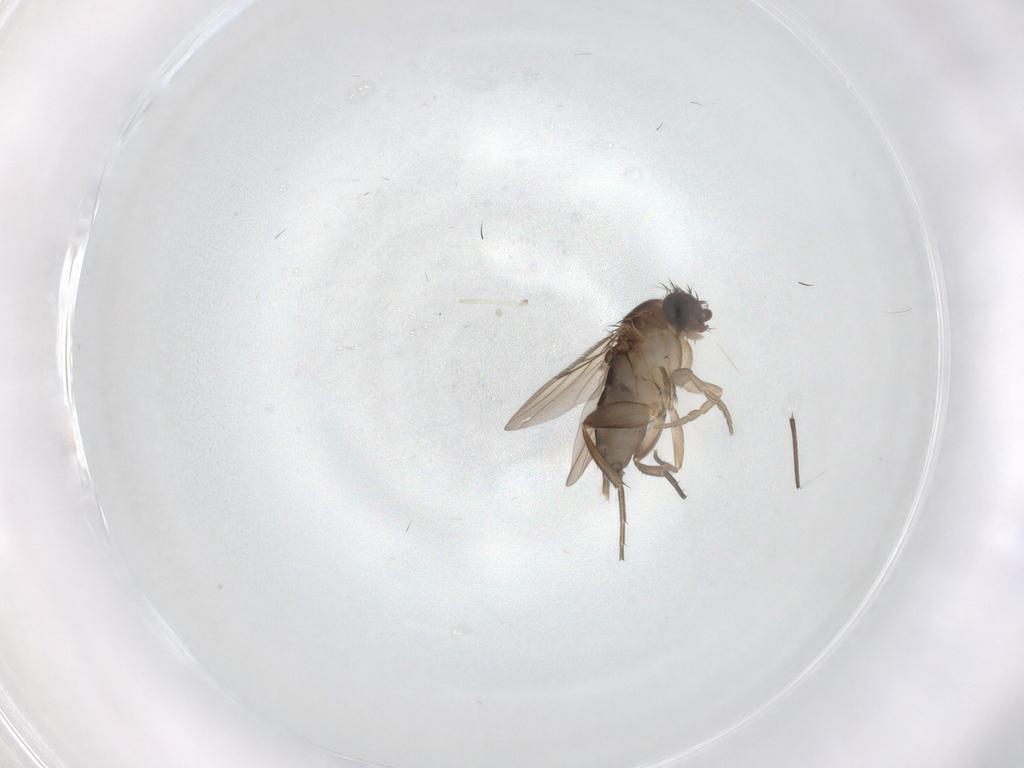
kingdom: Animalia
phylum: Arthropoda
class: Insecta
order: Diptera
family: Phoridae
